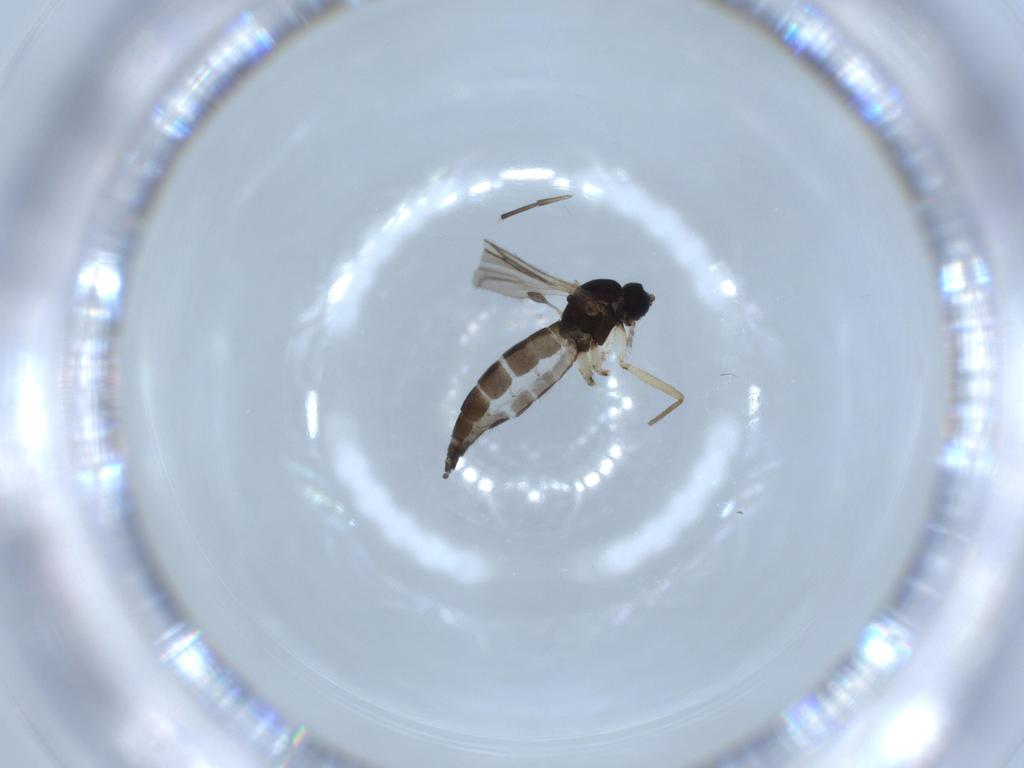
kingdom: Animalia
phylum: Arthropoda
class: Insecta
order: Diptera
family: Sciaridae
